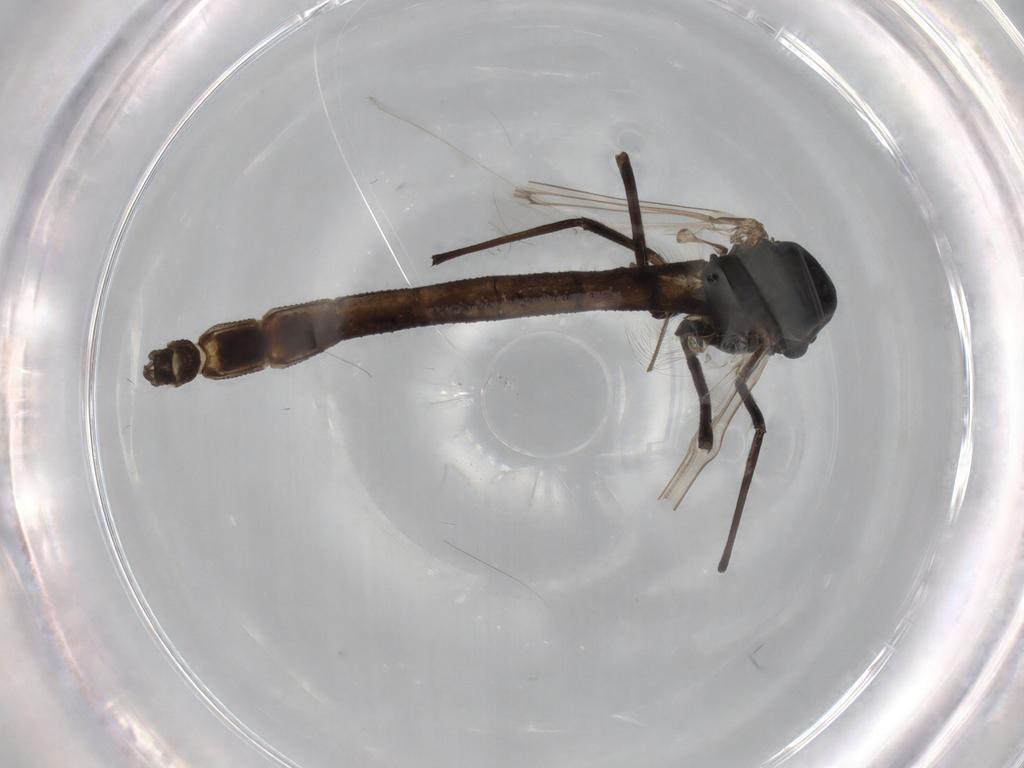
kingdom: Animalia
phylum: Arthropoda
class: Insecta
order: Diptera
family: Chironomidae
